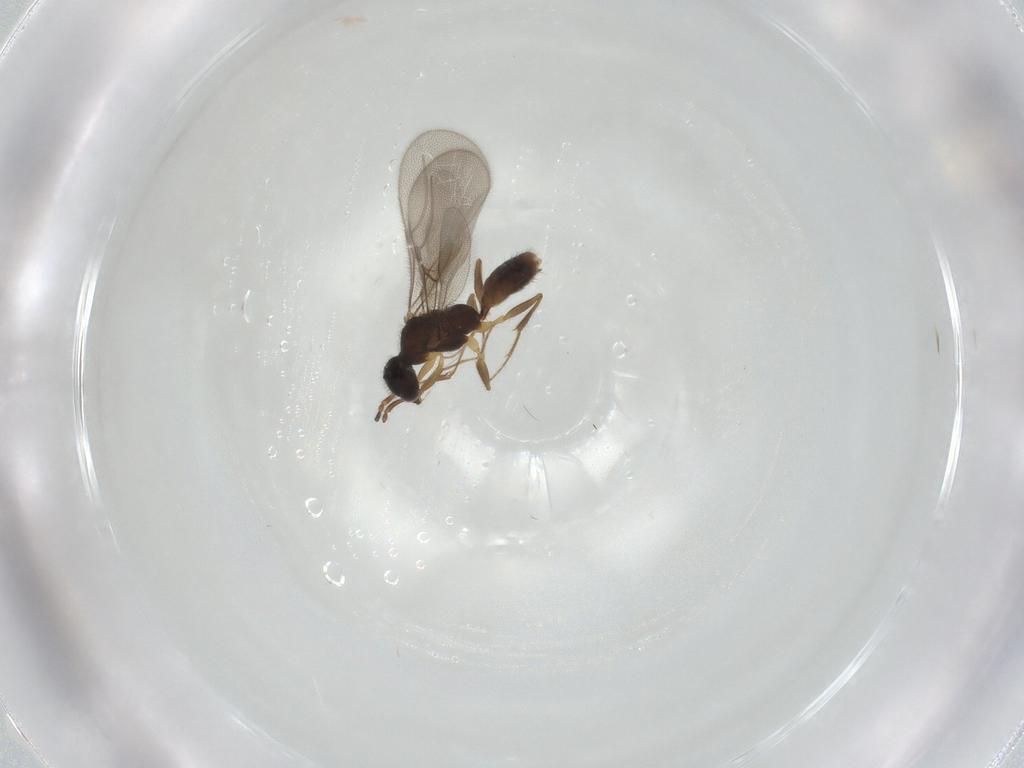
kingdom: Animalia
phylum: Arthropoda
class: Insecta
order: Hymenoptera
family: Bethylidae
